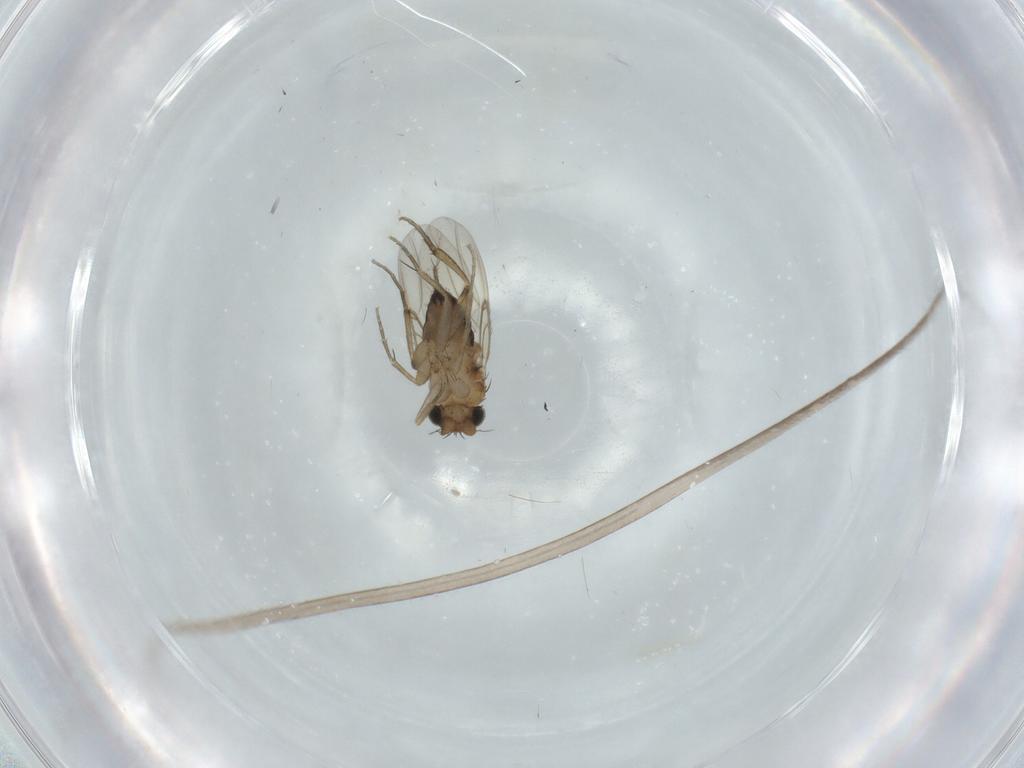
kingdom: Animalia
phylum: Arthropoda
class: Insecta
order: Diptera
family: Chironomidae
